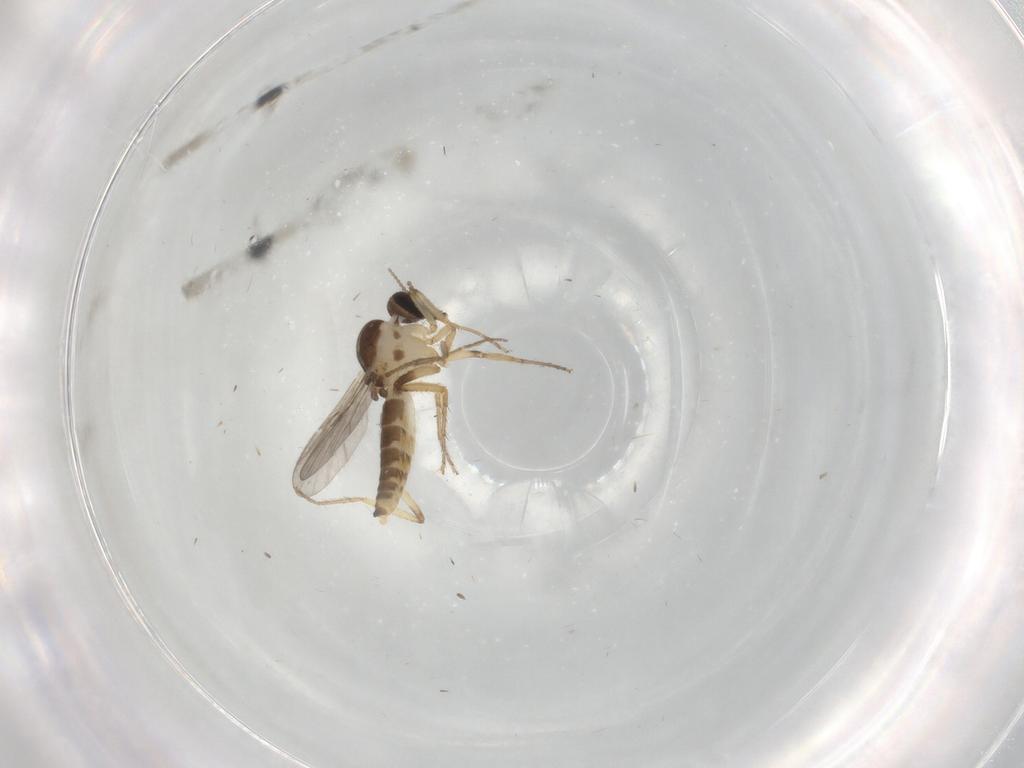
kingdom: Animalia
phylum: Arthropoda
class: Insecta
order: Diptera
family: Ceratopogonidae
